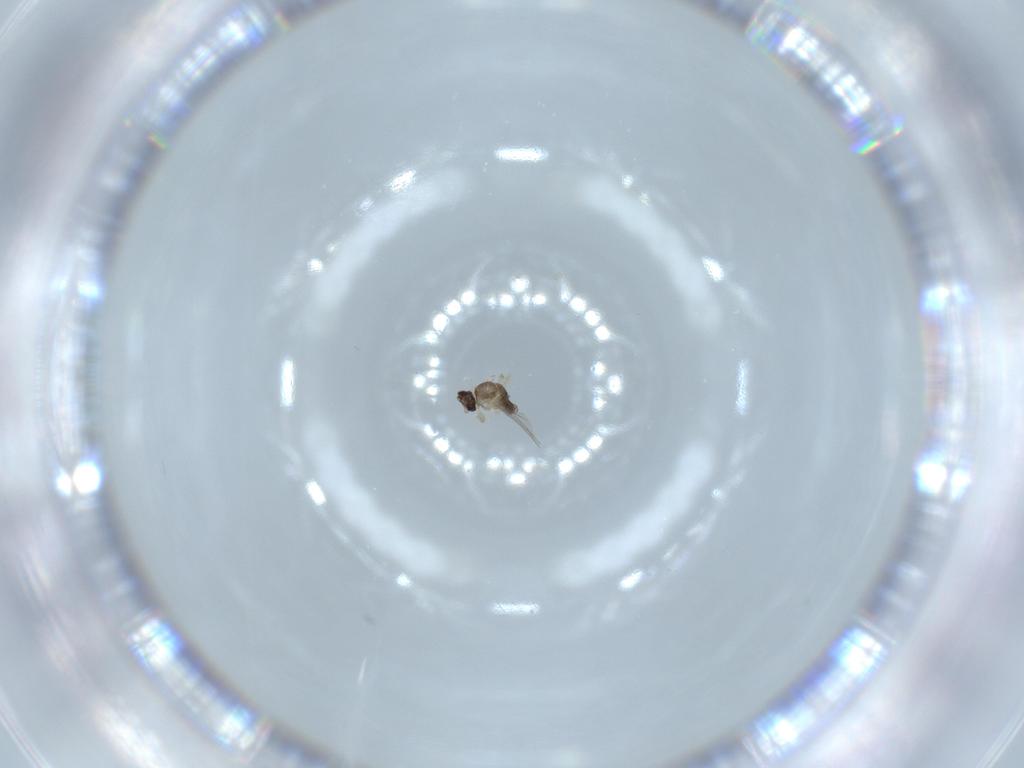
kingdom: Animalia
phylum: Arthropoda
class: Insecta
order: Diptera
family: Cecidomyiidae
